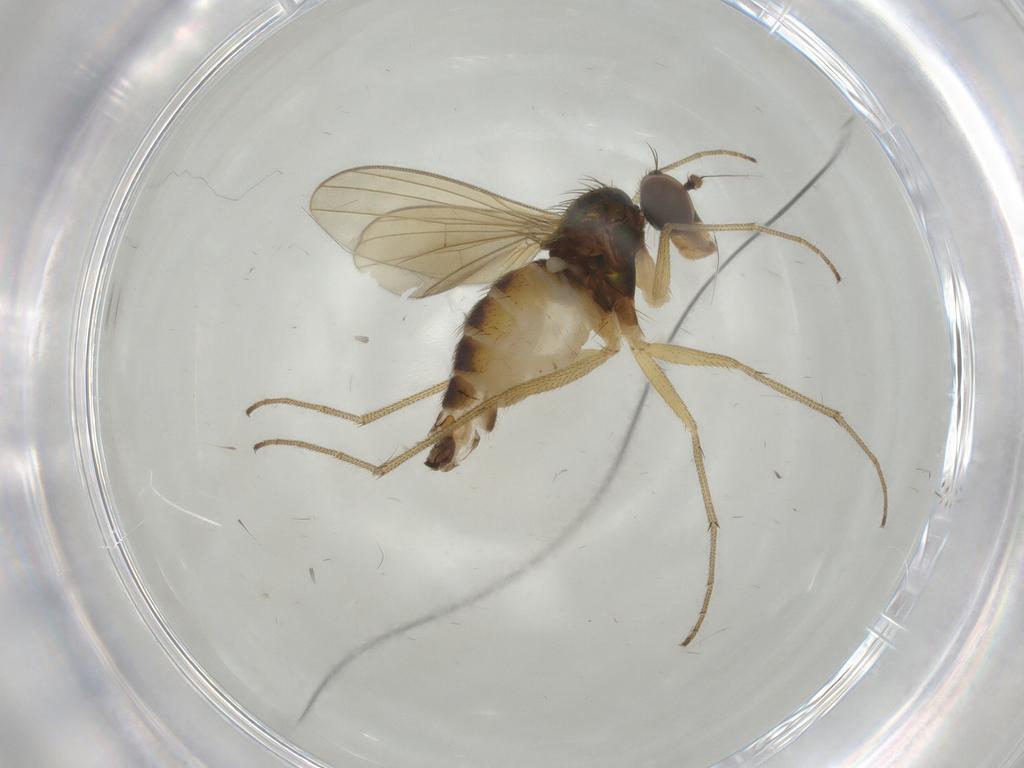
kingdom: Animalia
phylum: Arthropoda
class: Insecta
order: Diptera
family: Dolichopodidae
